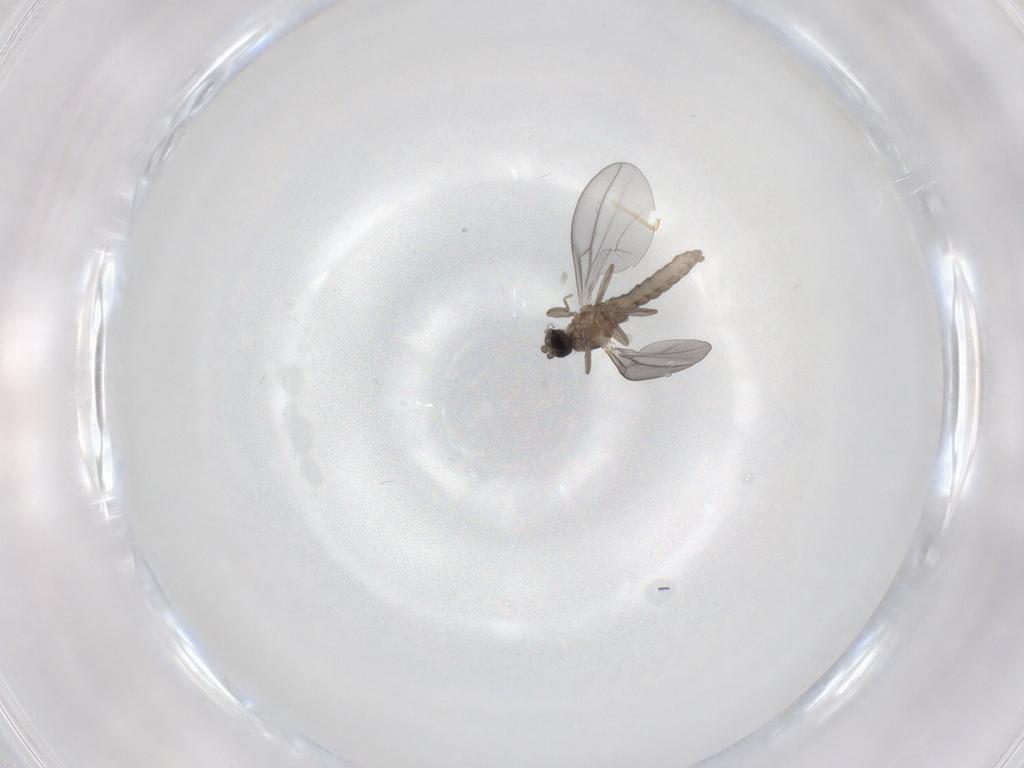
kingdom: Animalia
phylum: Arthropoda
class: Insecta
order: Diptera
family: Cecidomyiidae
